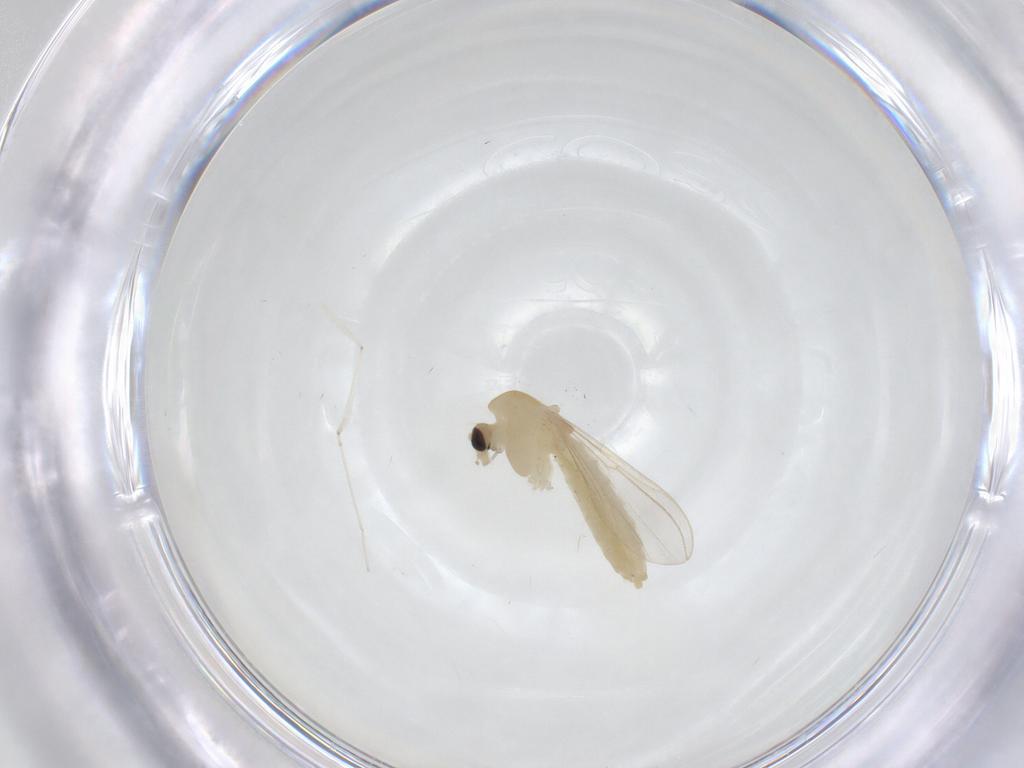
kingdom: Animalia
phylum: Arthropoda
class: Insecta
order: Diptera
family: Chironomidae
